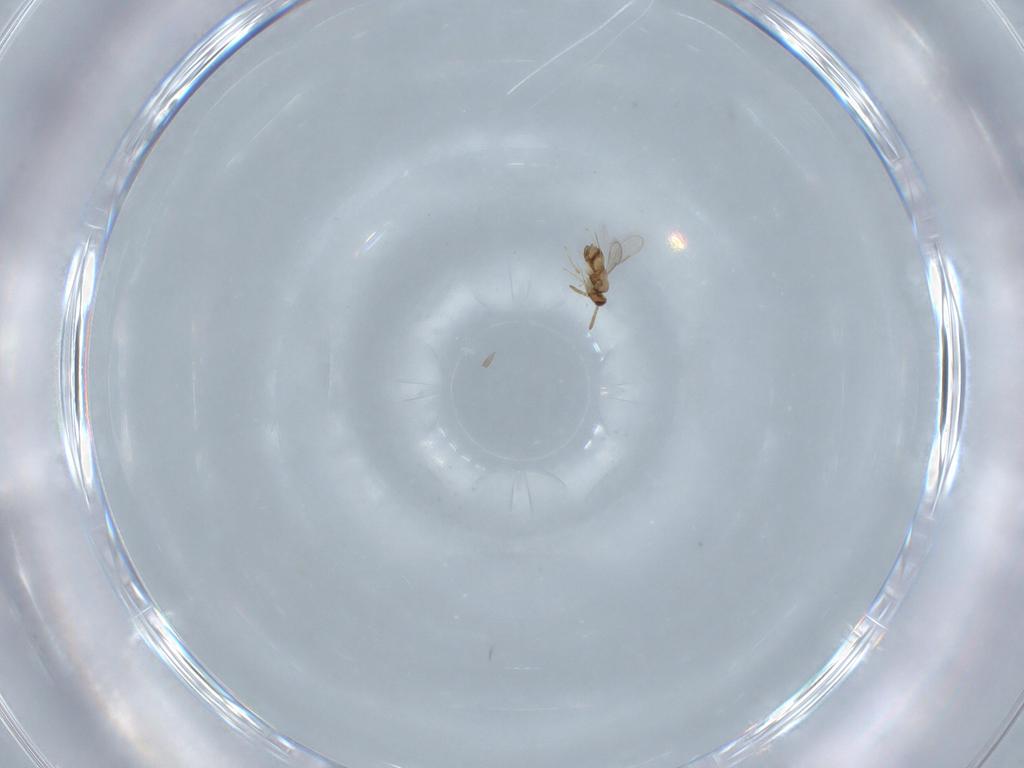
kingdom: Animalia
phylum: Arthropoda
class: Insecta
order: Hymenoptera
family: Aphelinidae
